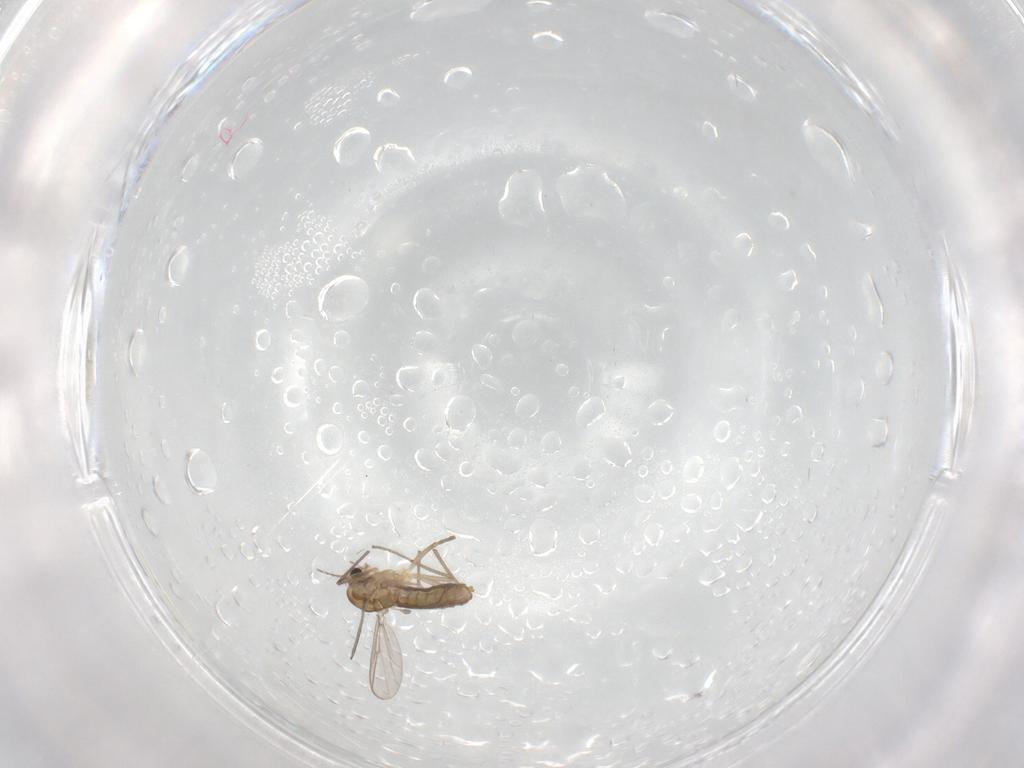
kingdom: Animalia
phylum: Arthropoda
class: Insecta
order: Diptera
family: Chironomidae
